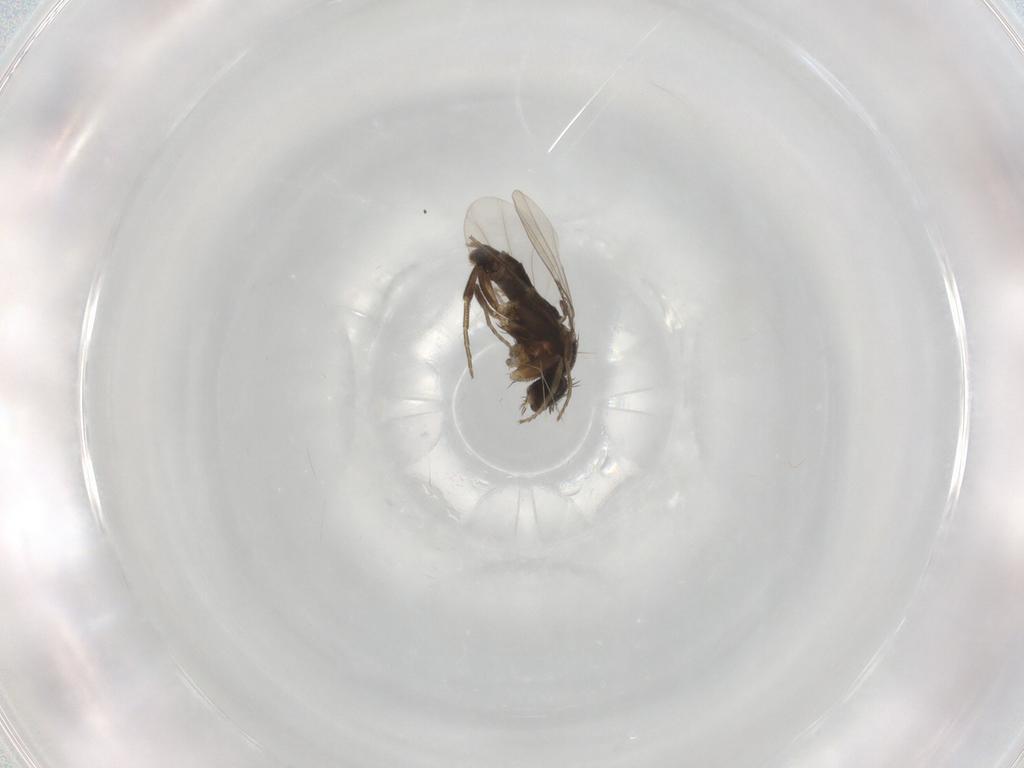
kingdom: Animalia
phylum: Arthropoda
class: Insecta
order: Diptera
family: Phoridae
